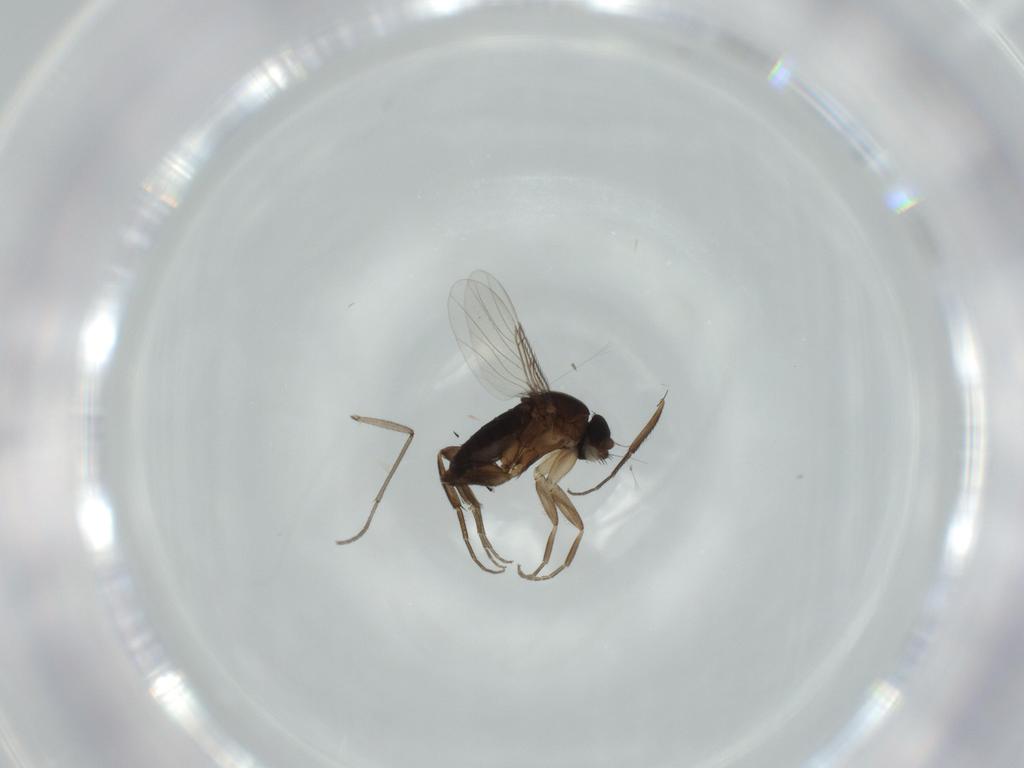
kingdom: Animalia
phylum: Arthropoda
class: Insecta
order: Diptera
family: Phoridae
